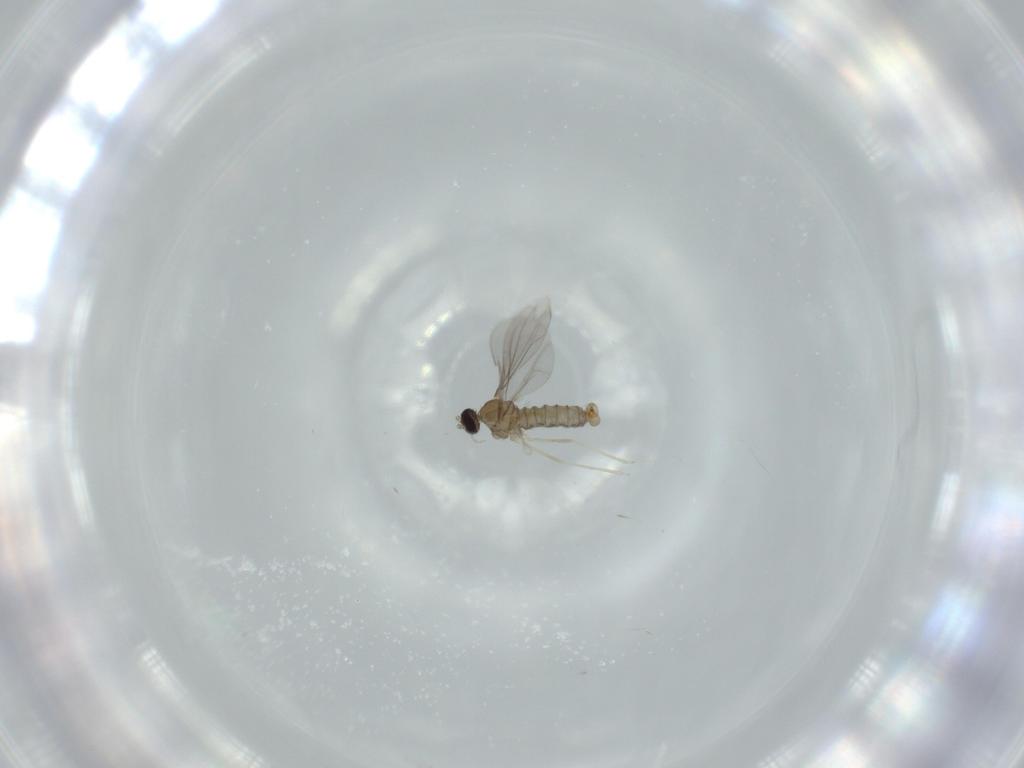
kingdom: Animalia
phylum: Arthropoda
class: Insecta
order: Diptera
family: Cecidomyiidae
